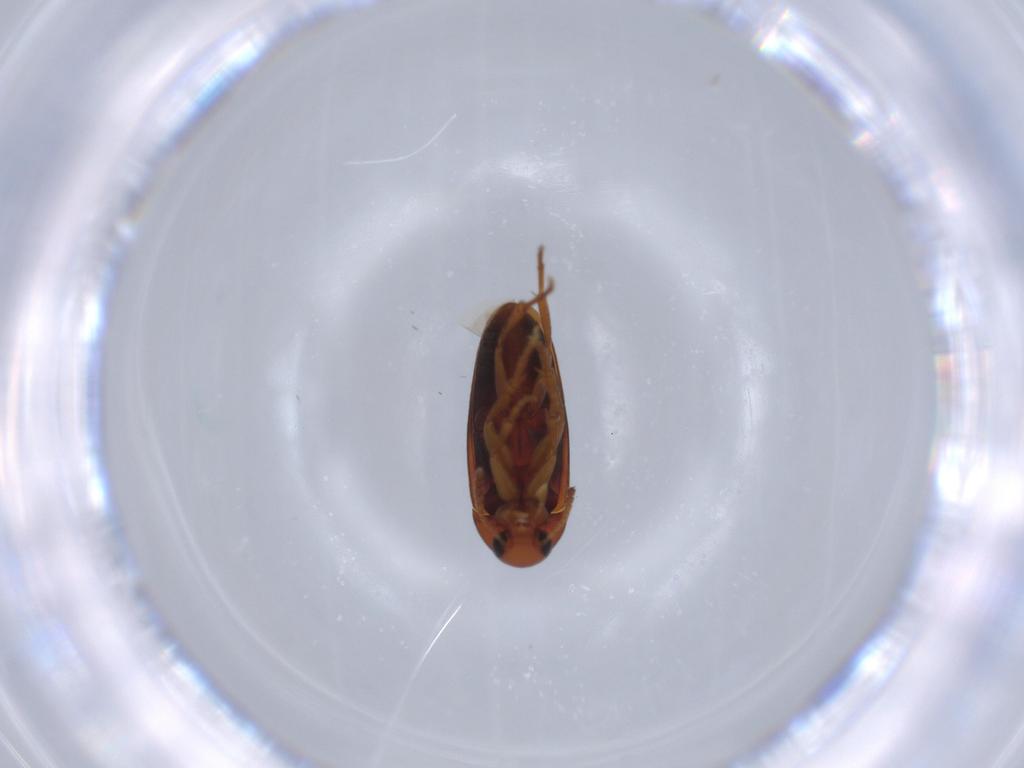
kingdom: Animalia
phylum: Arthropoda
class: Insecta
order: Coleoptera
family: Scraptiidae
